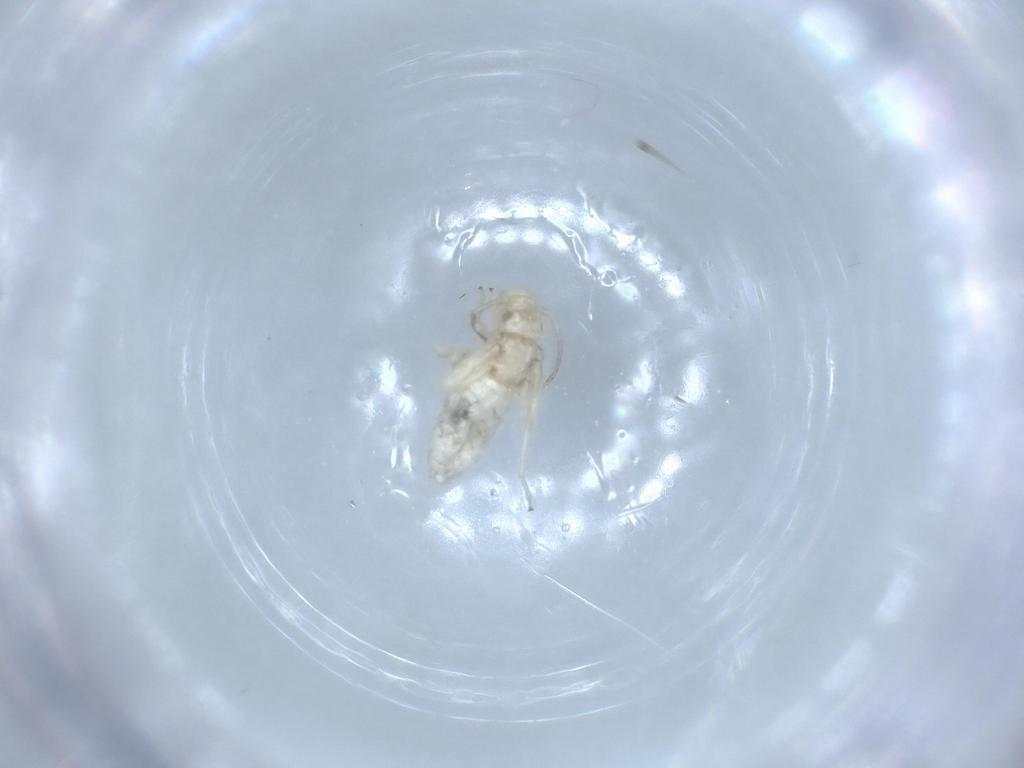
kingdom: Animalia
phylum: Arthropoda
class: Insecta
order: Psocodea
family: Caeciliusidae
